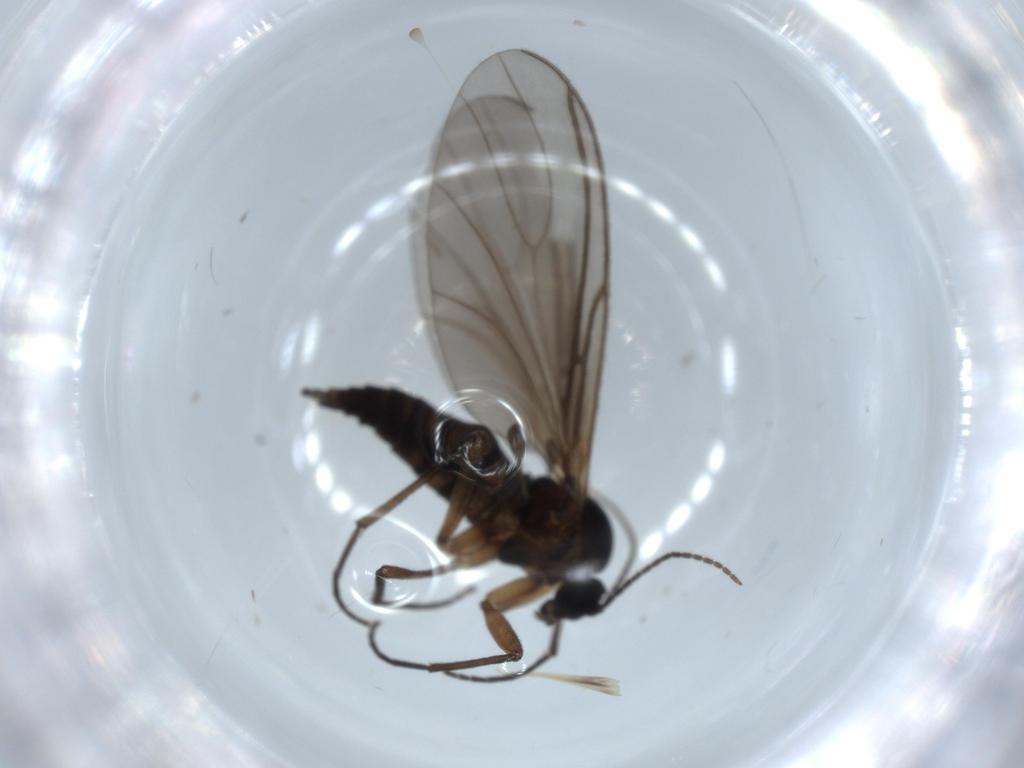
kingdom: Animalia
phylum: Arthropoda
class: Insecta
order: Diptera
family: Sciaridae
